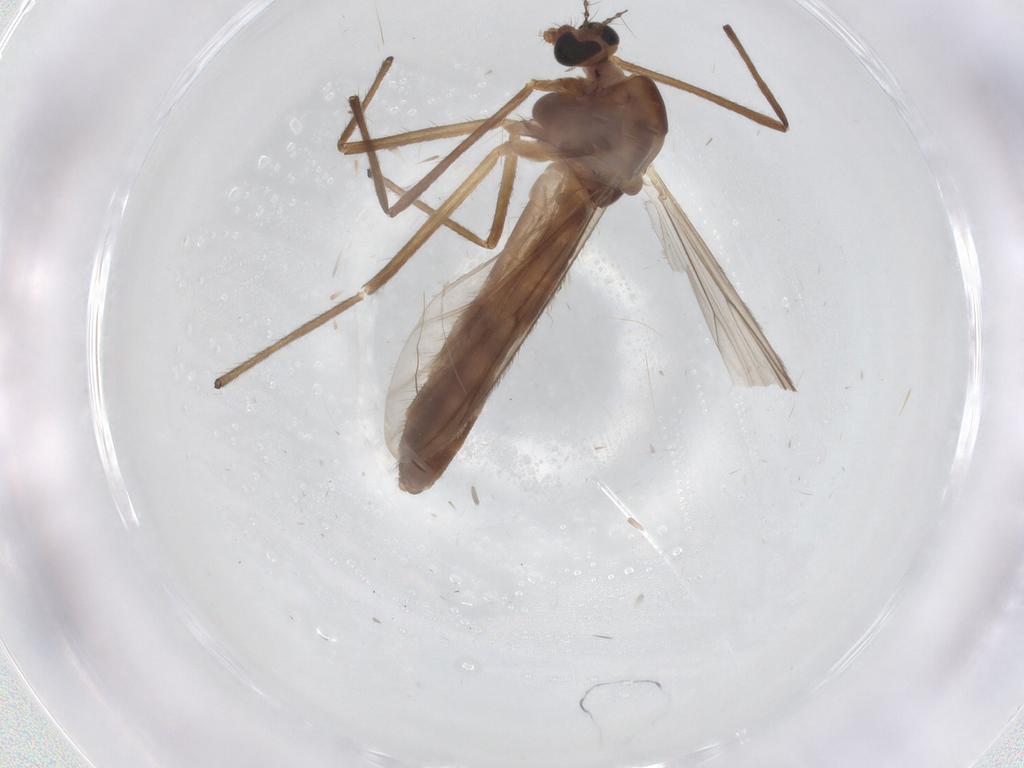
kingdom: Animalia
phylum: Arthropoda
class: Insecta
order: Diptera
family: Phoridae
